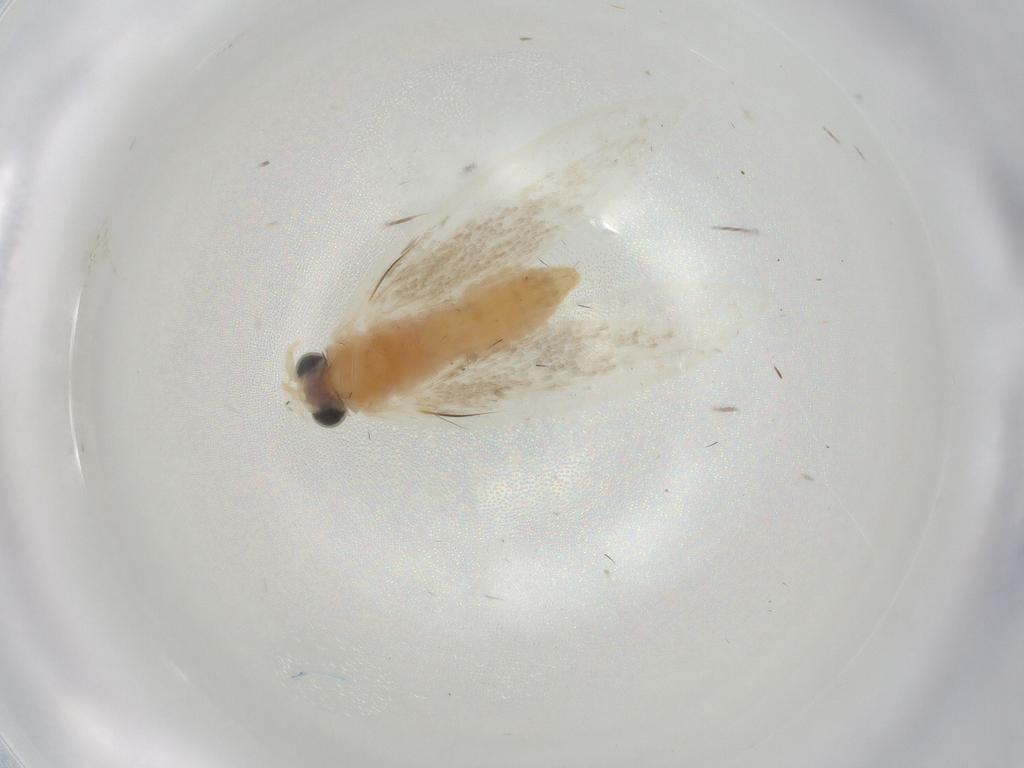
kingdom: Animalia
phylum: Arthropoda
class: Insecta
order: Lepidoptera
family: Psychidae
